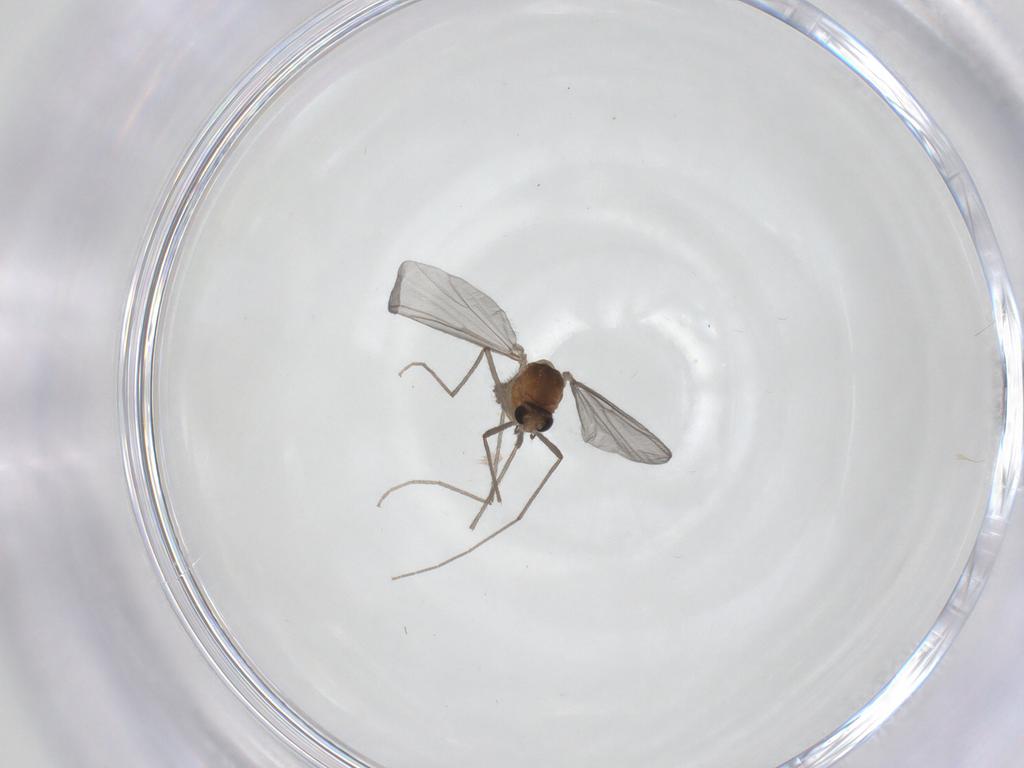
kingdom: Animalia
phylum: Arthropoda
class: Insecta
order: Diptera
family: Chironomidae
